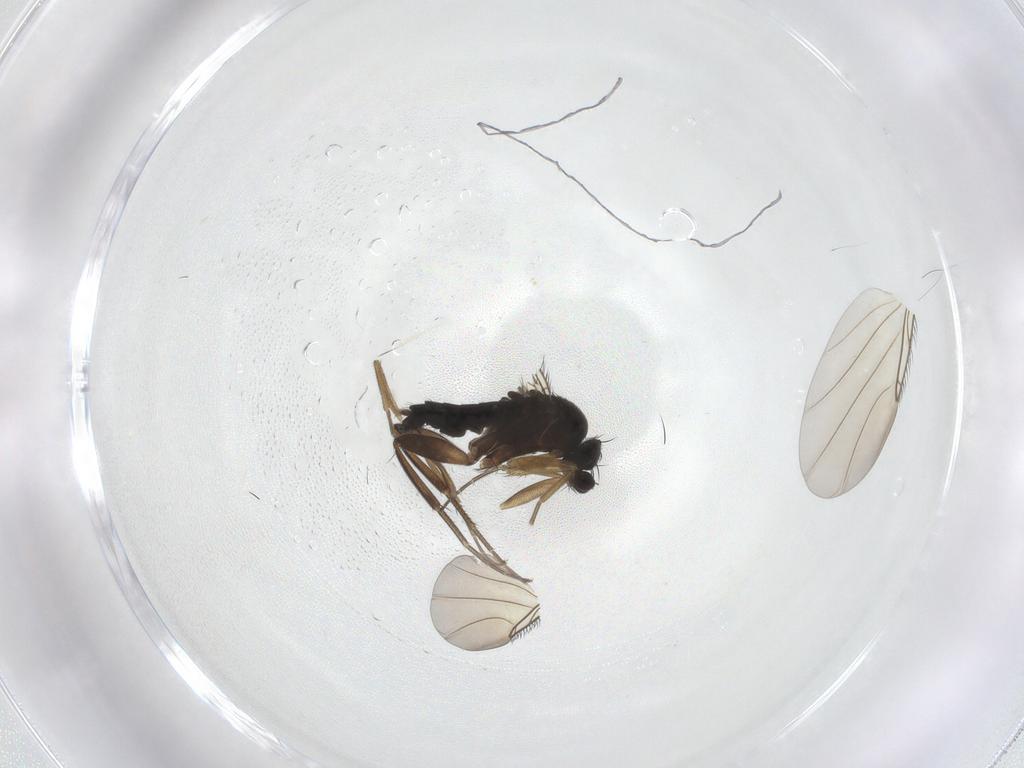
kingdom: Animalia
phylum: Arthropoda
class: Insecta
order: Diptera
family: Phoridae
